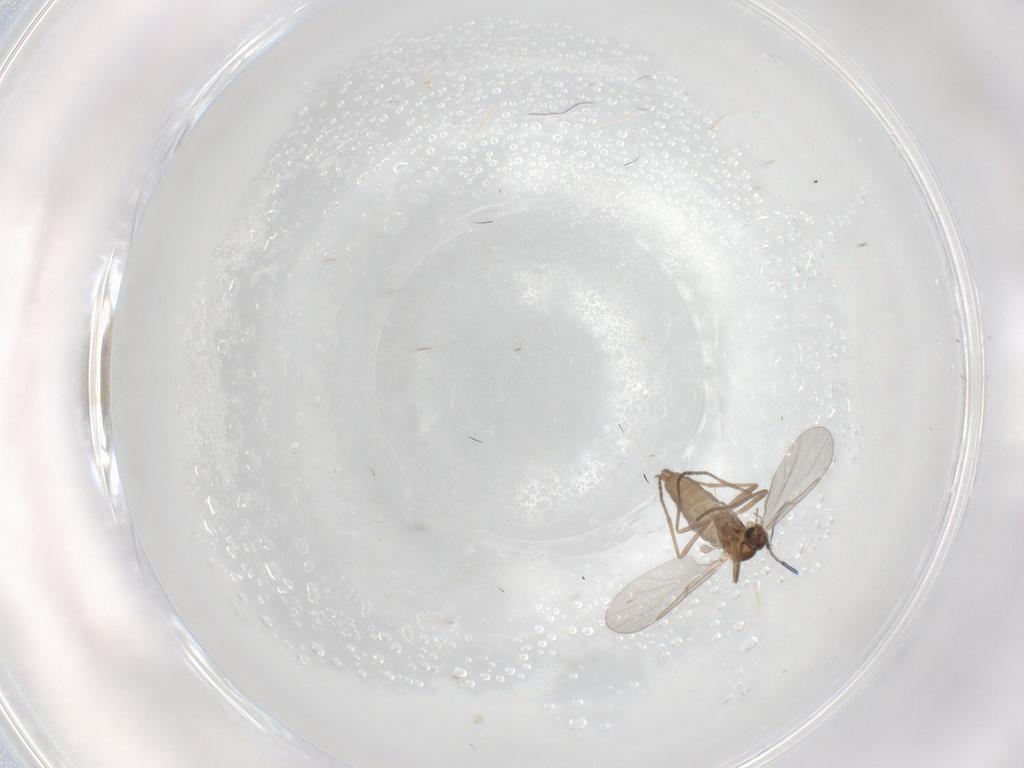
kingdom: Animalia
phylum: Arthropoda
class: Insecta
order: Diptera
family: Cecidomyiidae
